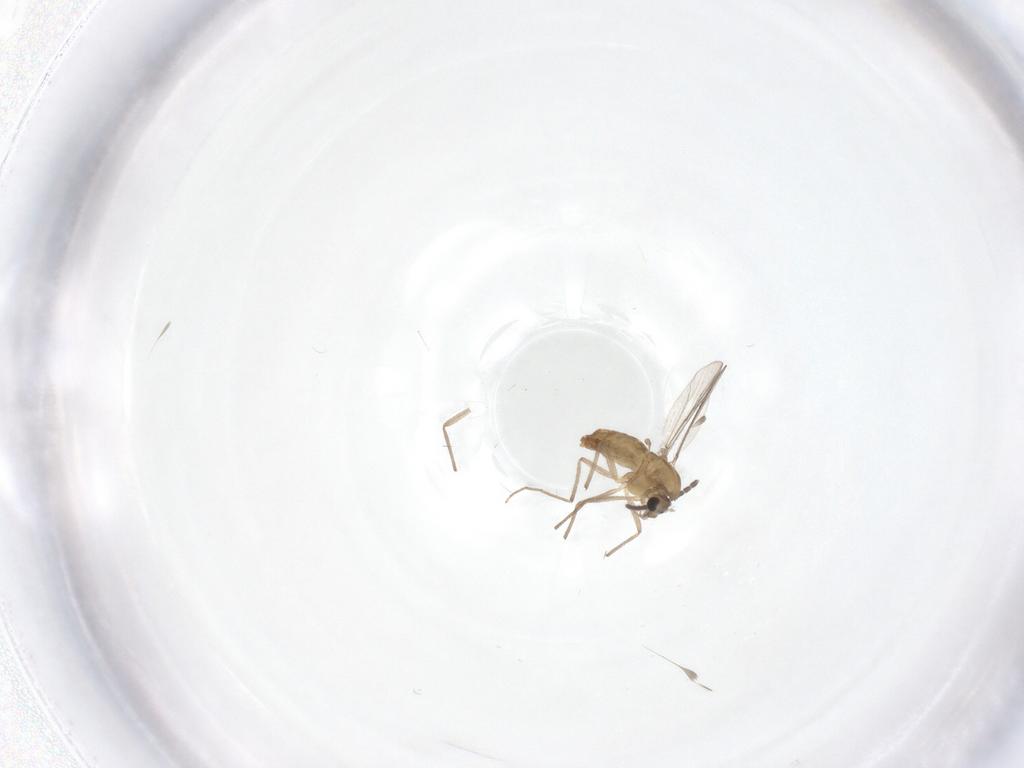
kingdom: Animalia
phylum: Arthropoda
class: Insecta
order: Diptera
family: Chironomidae
